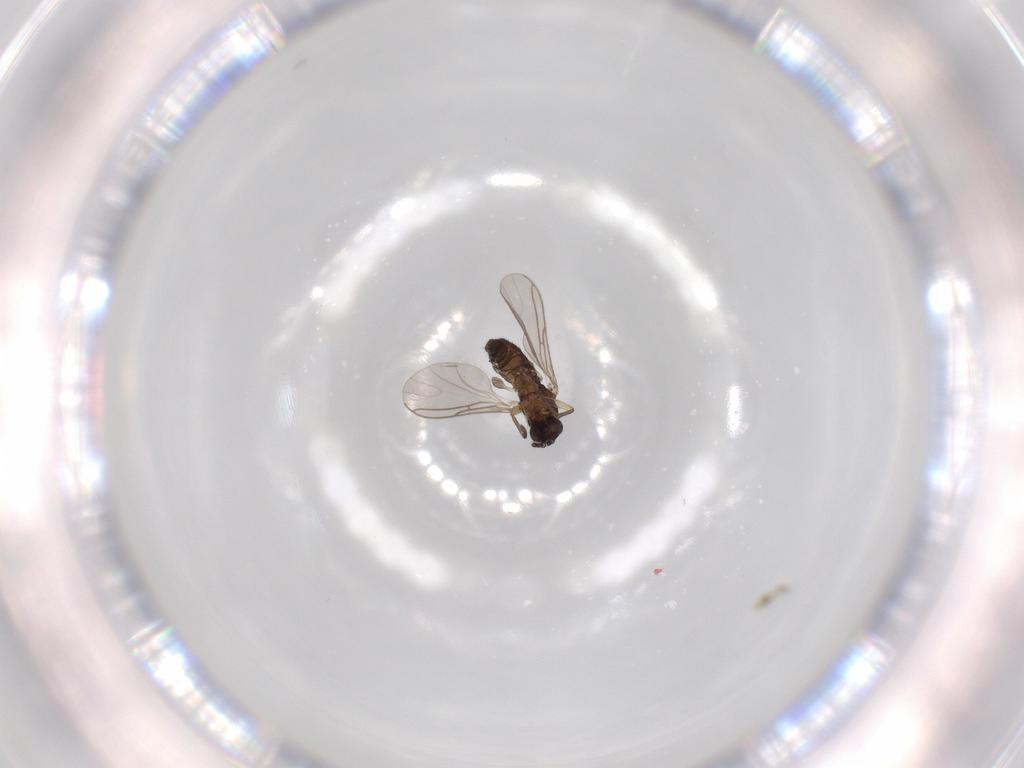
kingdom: Animalia
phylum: Arthropoda
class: Insecta
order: Diptera
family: Sciaridae
